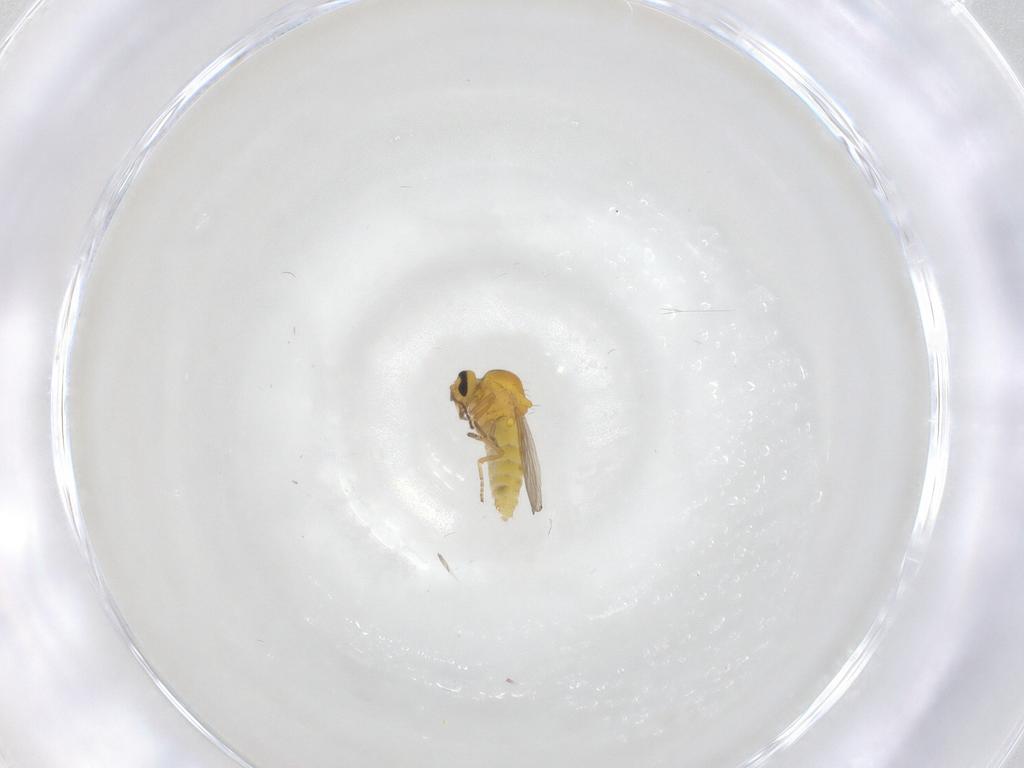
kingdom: Animalia
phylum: Arthropoda
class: Insecta
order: Diptera
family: Ceratopogonidae
